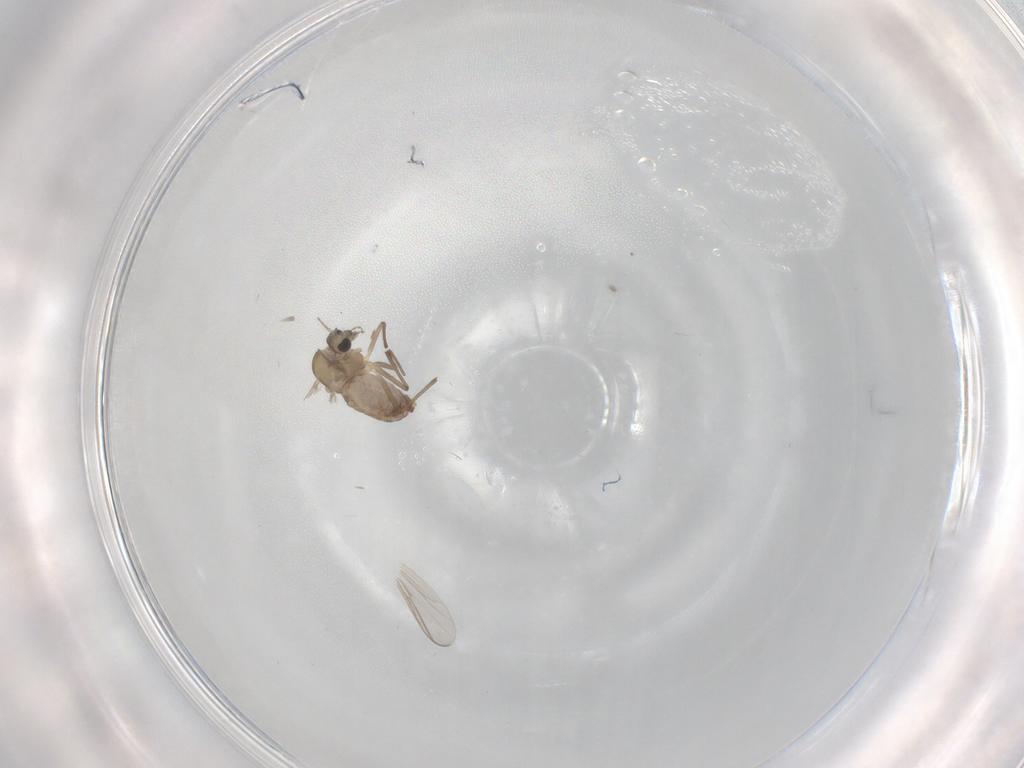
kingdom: Animalia
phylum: Arthropoda
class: Insecta
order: Diptera
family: Chironomidae
